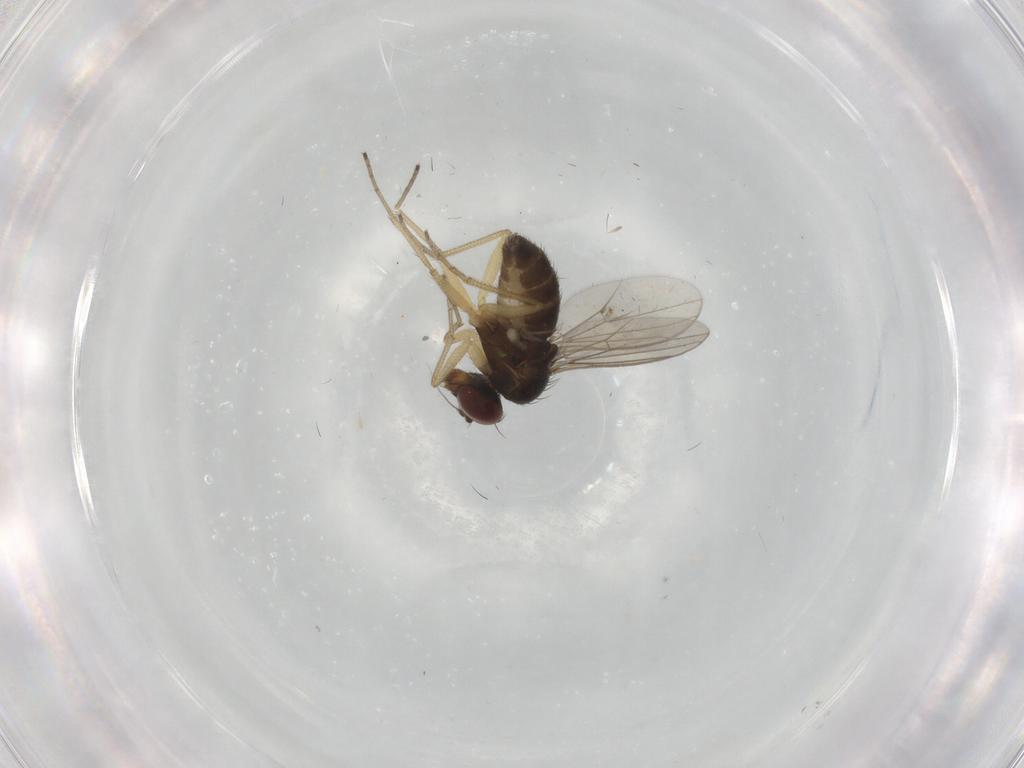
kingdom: Animalia
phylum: Arthropoda
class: Insecta
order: Diptera
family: Dolichopodidae
